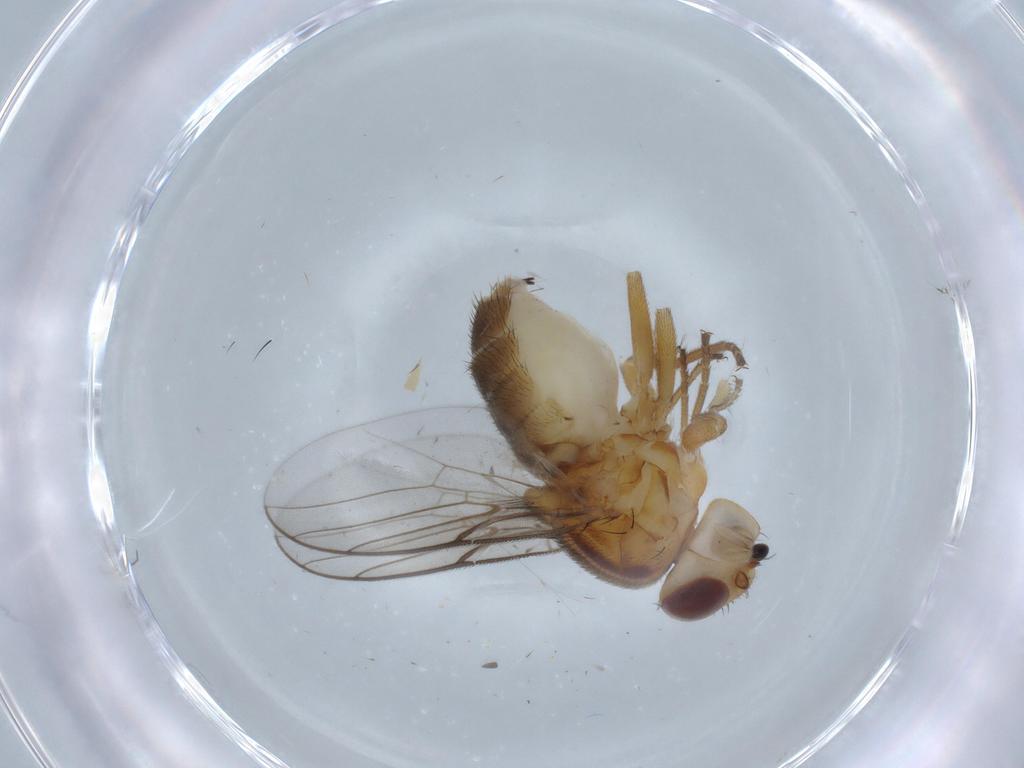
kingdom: Animalia
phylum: Arthropoda
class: Insecta
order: Diptera
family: Chloropidae
